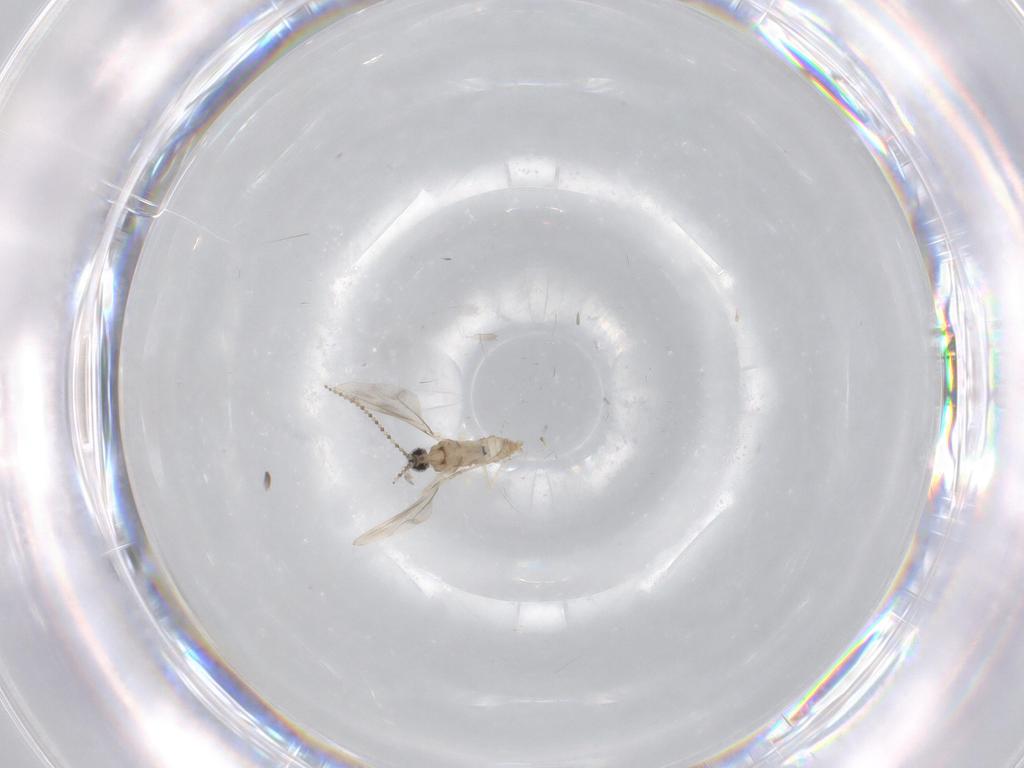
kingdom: Animalia
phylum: Arthropoda
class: Insecta
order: Diptera
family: Cecidomyiidae
